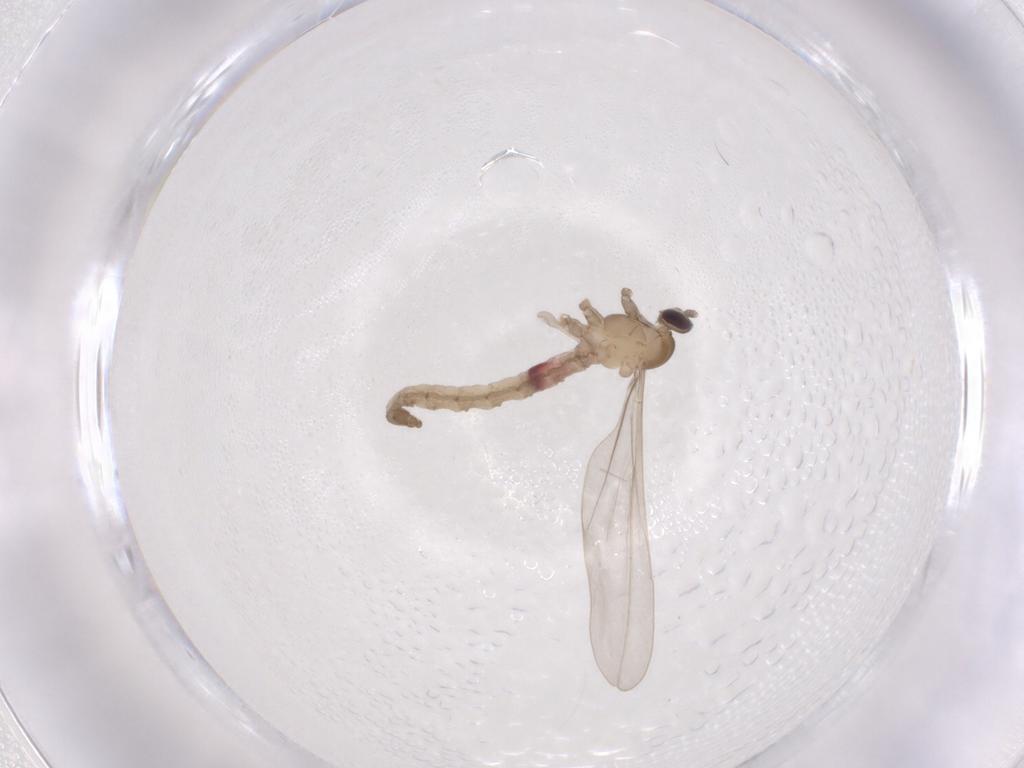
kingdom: Animalia
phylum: Arthropoda
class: Insecta
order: Diptera
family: Cecidomyiidae
